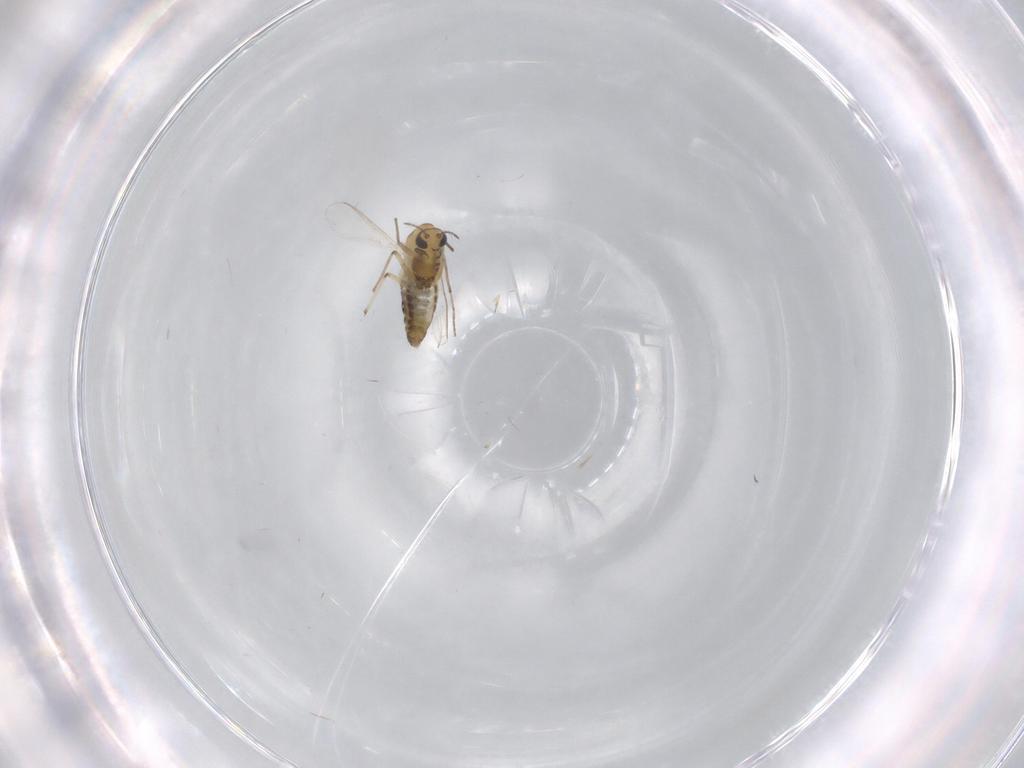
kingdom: Animalia
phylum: Arthropoda
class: Insecta
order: Diptera
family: Chironomidae
